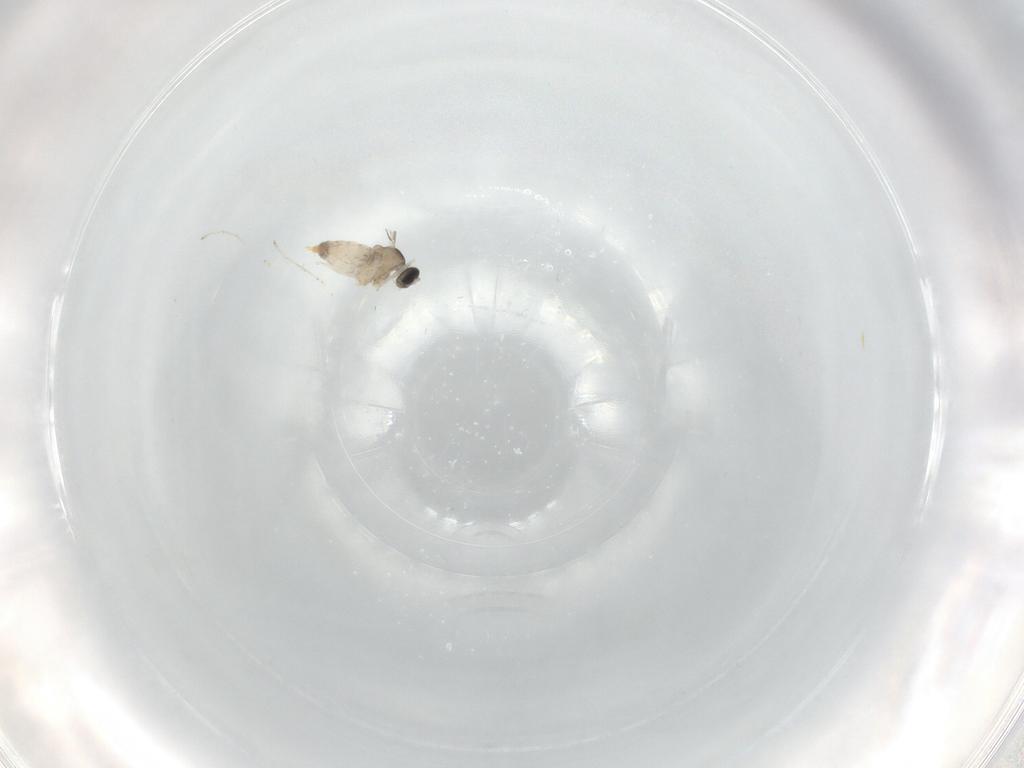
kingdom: Animalia
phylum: Arthropoda
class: Insecta
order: Diptera
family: Cecidomyiidae
